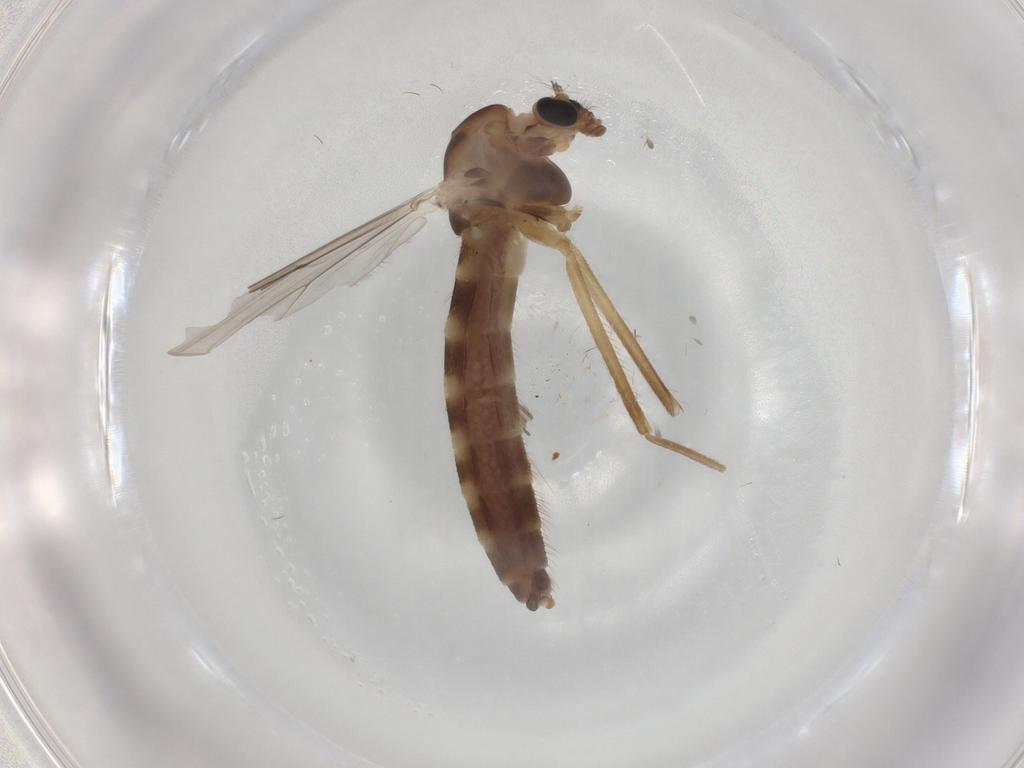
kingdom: Animalia
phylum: Arthropoda
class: Insecta
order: Diptera
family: Chironomidae
